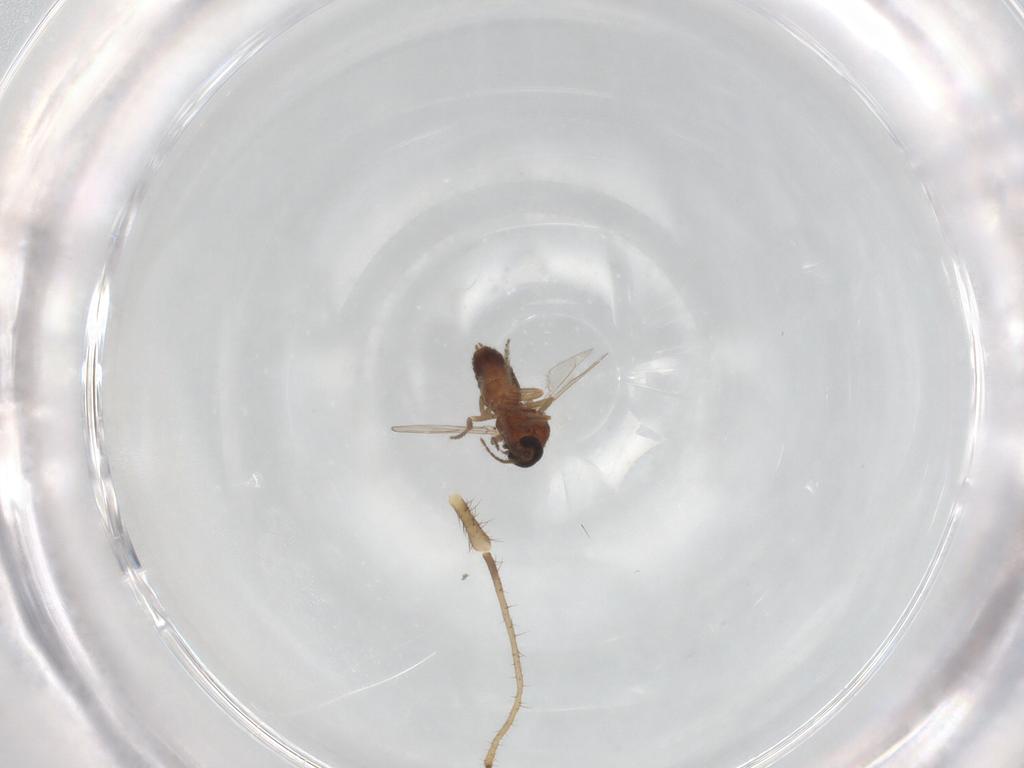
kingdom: Animalia
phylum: Arthropoda
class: Insecta
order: Diptera
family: Ceratopogonidae
